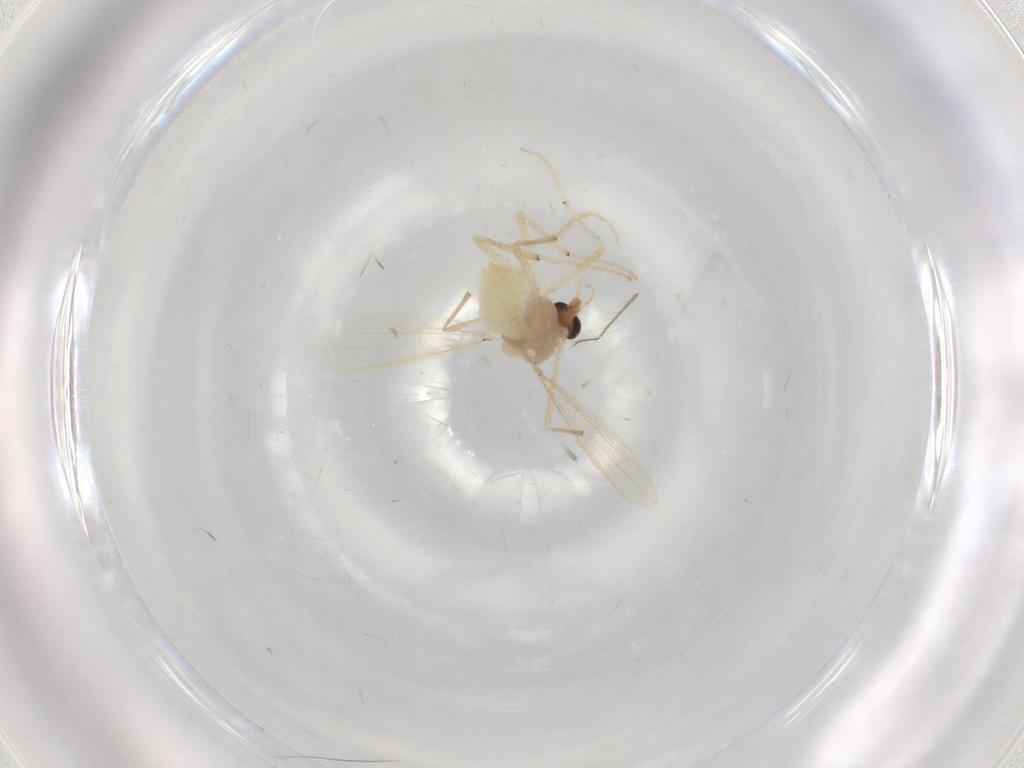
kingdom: Animalia
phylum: Arthropoda
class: Insecta
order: Diptera
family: Chironomidae
